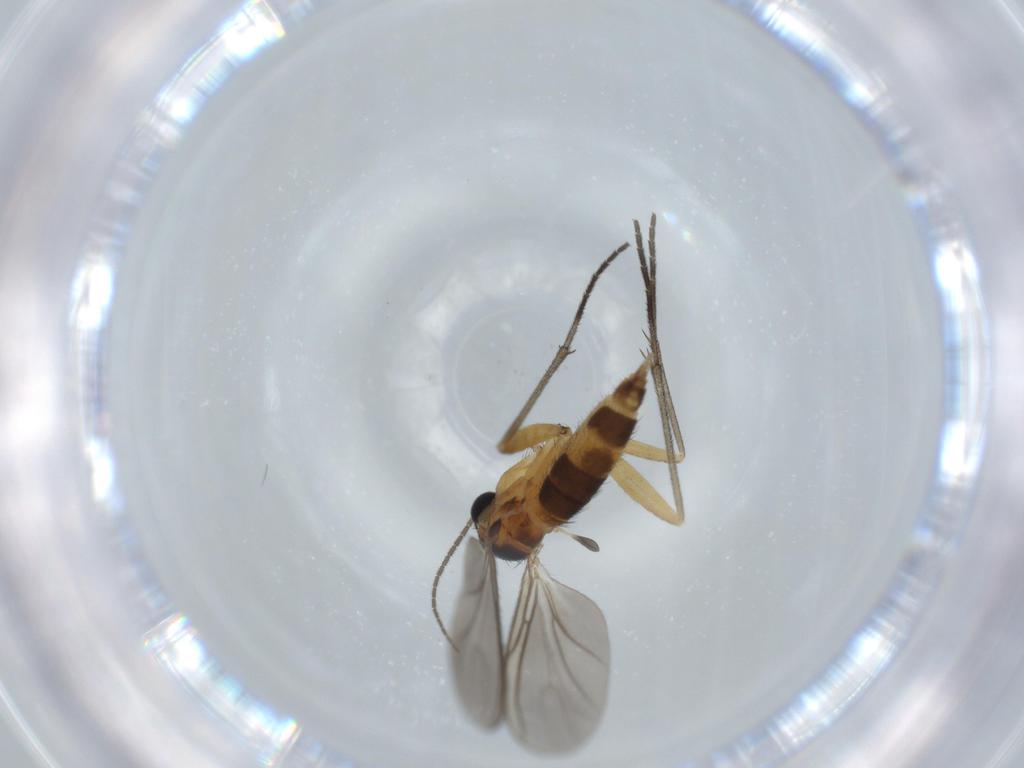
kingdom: Animalia
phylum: Arthropoda
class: Insecta
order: Diptera
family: Sciaridae
